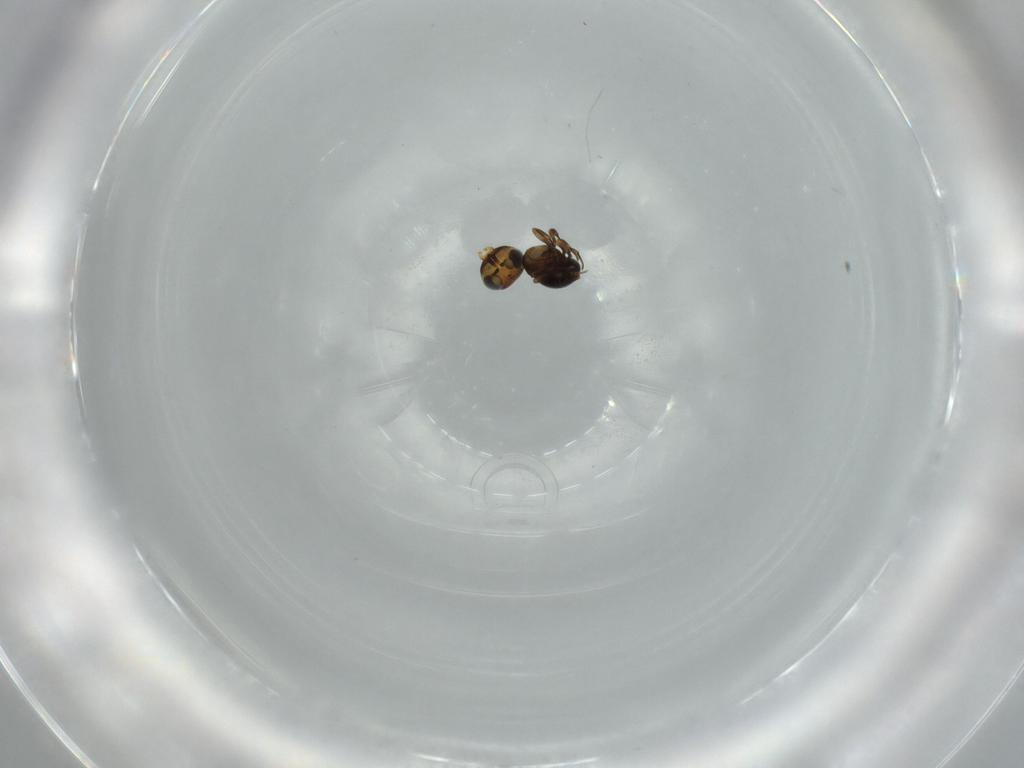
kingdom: Animalia
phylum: Arthropoda
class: Insecta
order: Hymenoptera
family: Scelionidae
